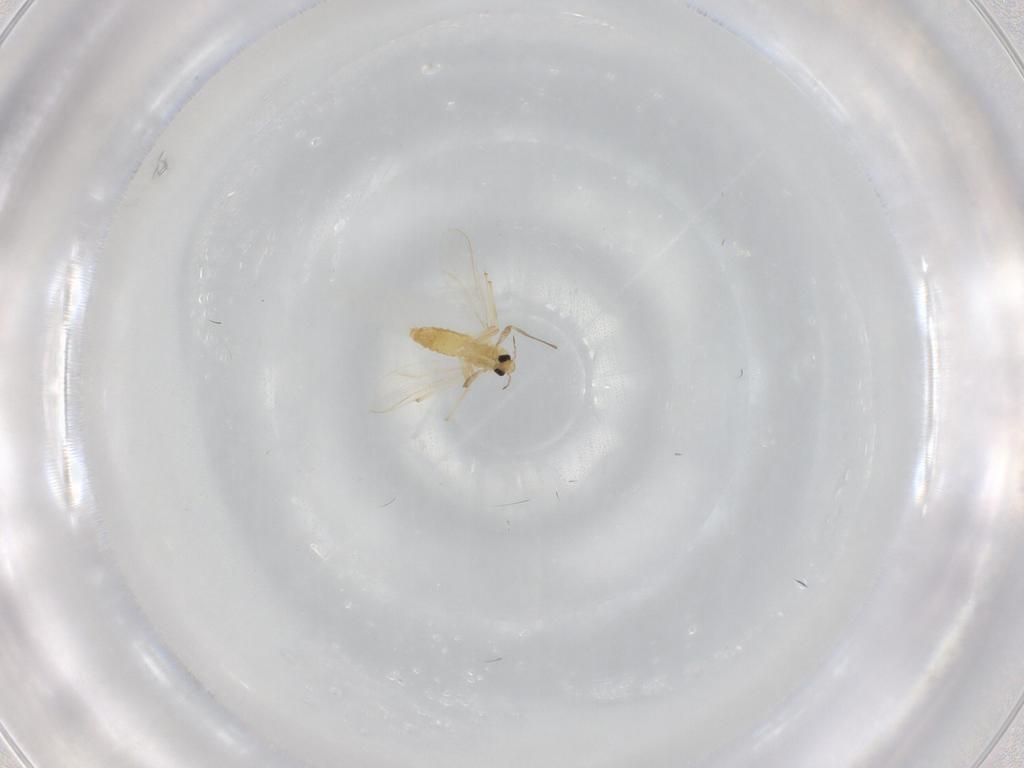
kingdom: Animalia
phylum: Arthropoda
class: Insecta
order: Diptera
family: Chironomidae
